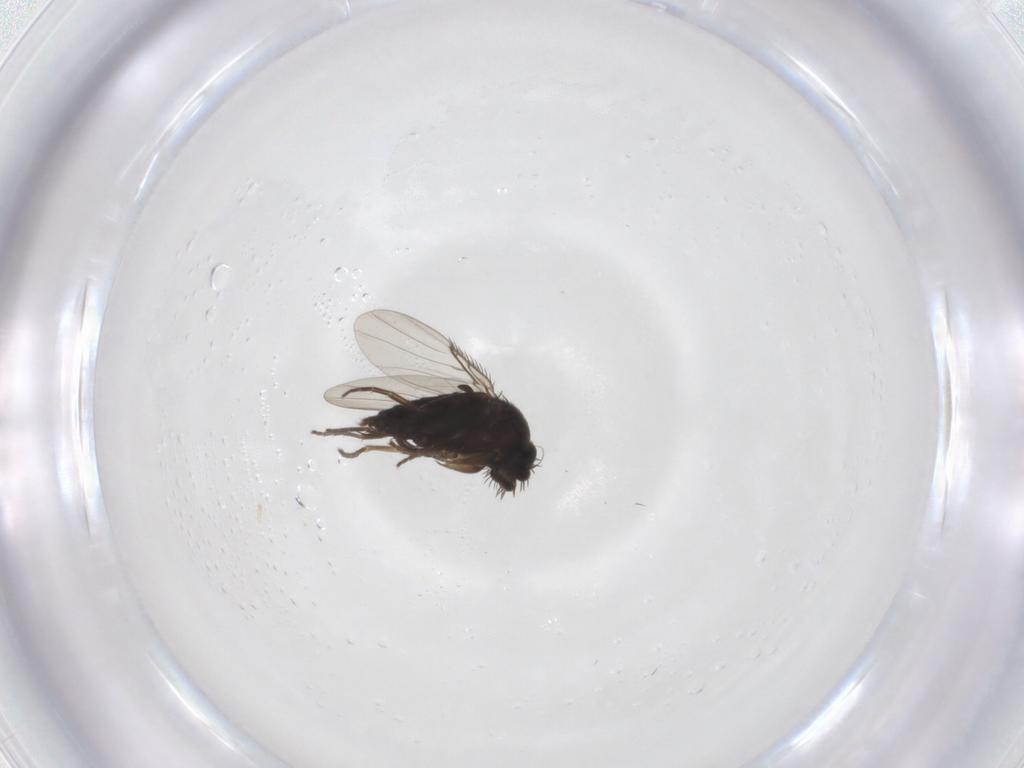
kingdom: Animalia
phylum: Arthropoda
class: Insecta
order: Diptera
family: Phoridae
